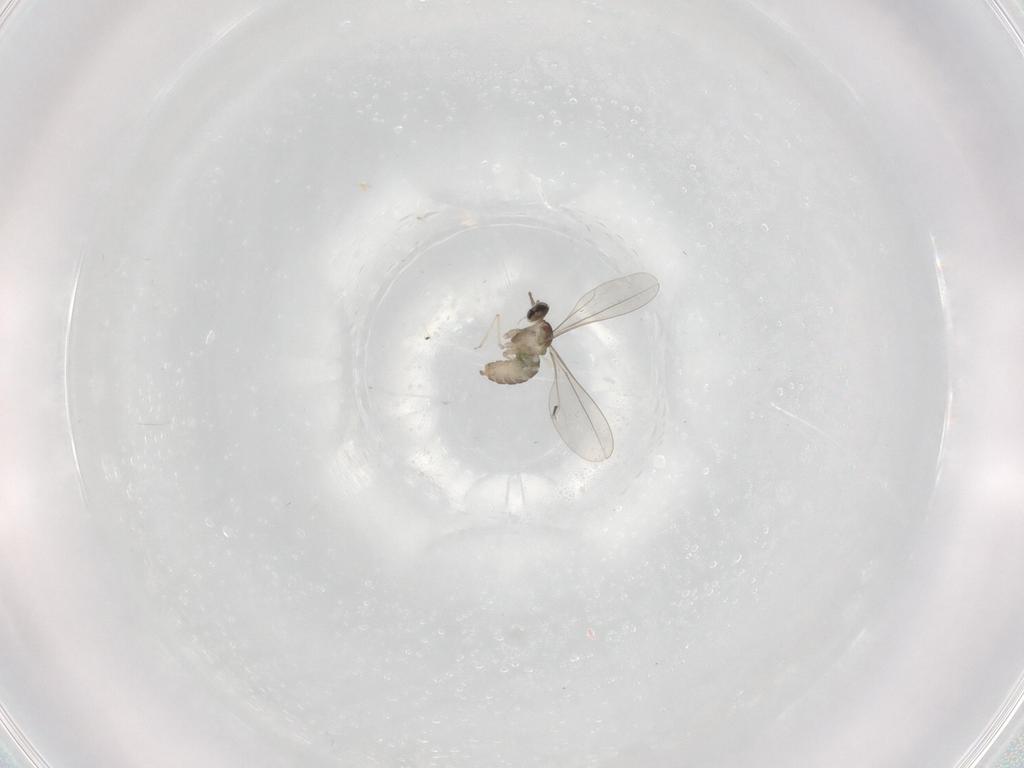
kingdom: Animalia
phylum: Arthropoda
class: Insecta
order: Diptera
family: Cecidomyiidae
